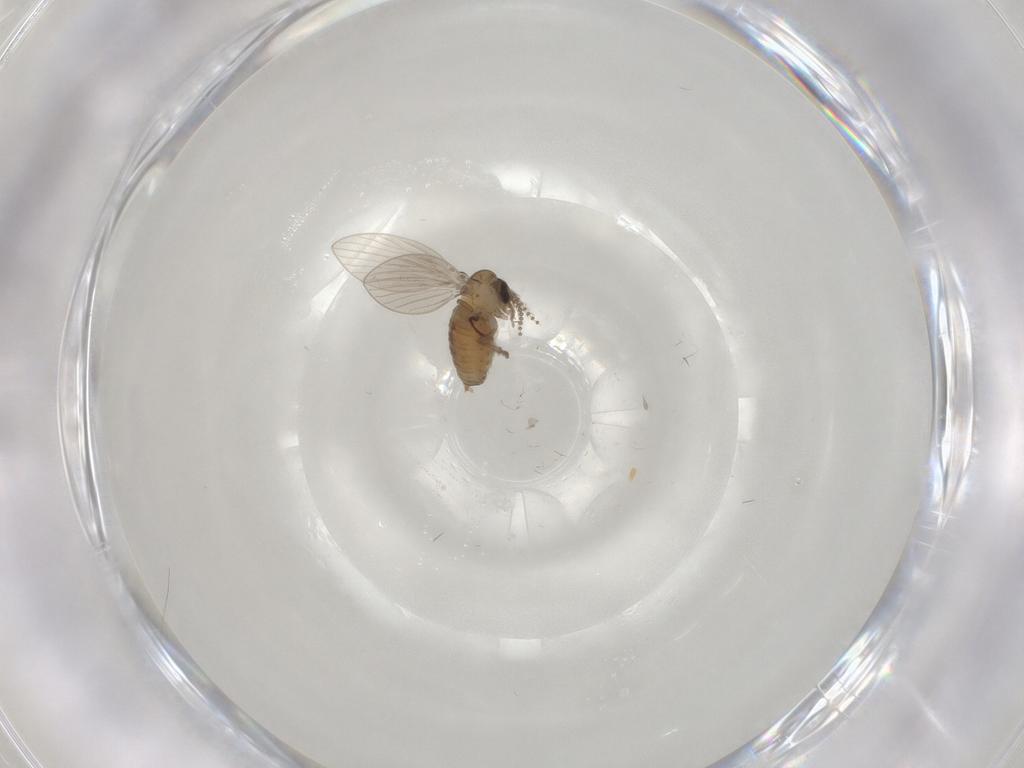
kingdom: Animalia
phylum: Arthropoda
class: Insecta
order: Diptera
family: Psychodidae
